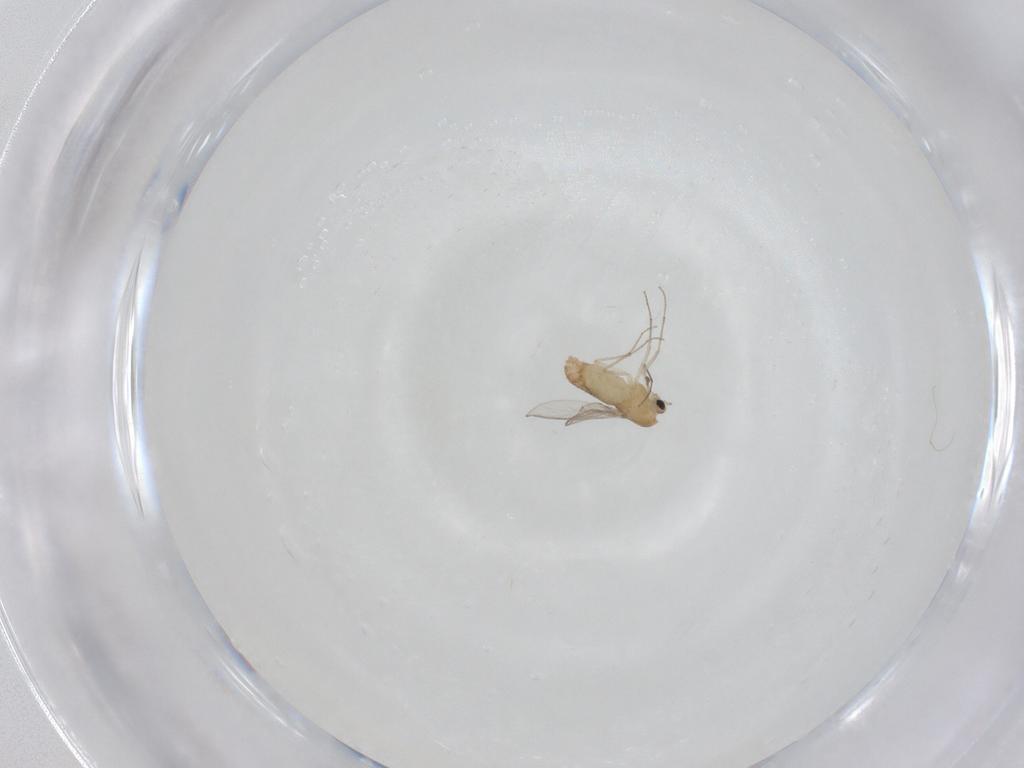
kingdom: Animalia
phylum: Arthropoda
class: Insecta
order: Diptera
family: Chironomidae
